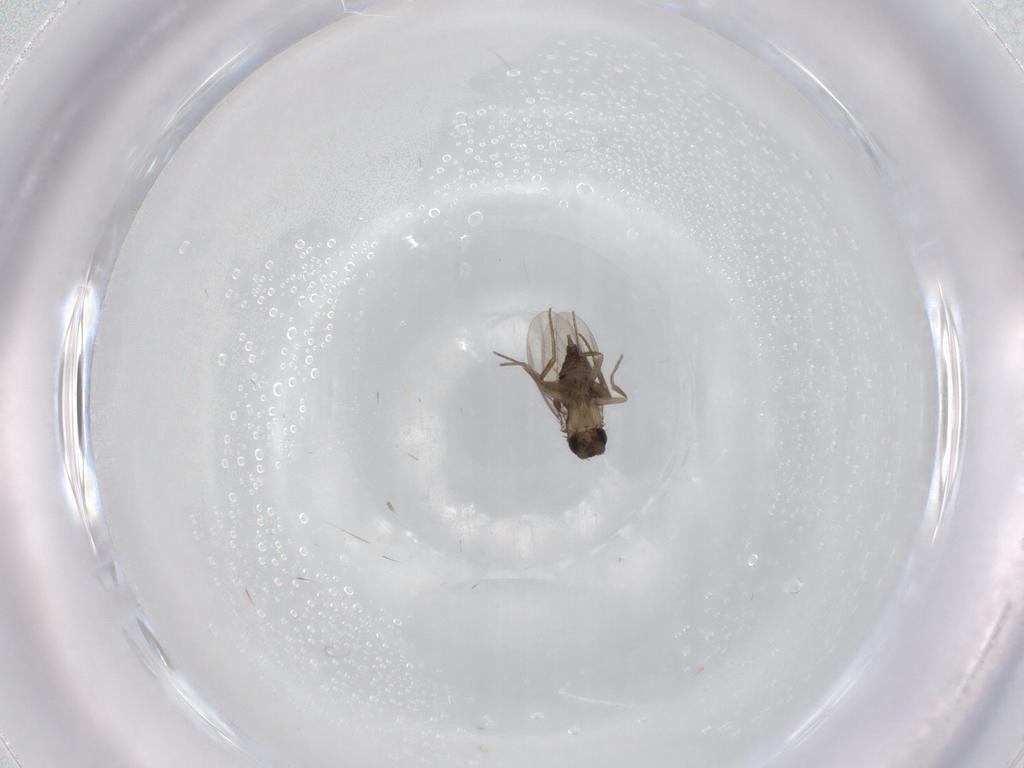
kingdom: Animalia
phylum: Arthropoda
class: Insecta
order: Diptera
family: Phoridae
